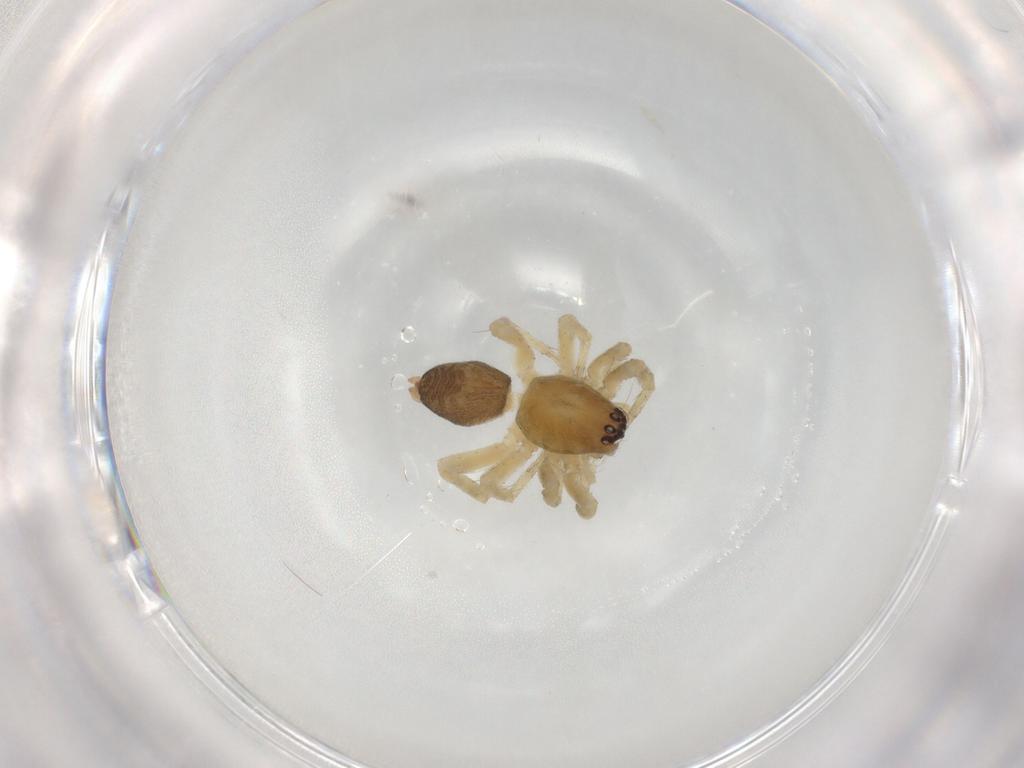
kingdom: Animalia
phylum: Arthropoda
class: Arachnida
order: Araneae
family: Anyphaenidae
